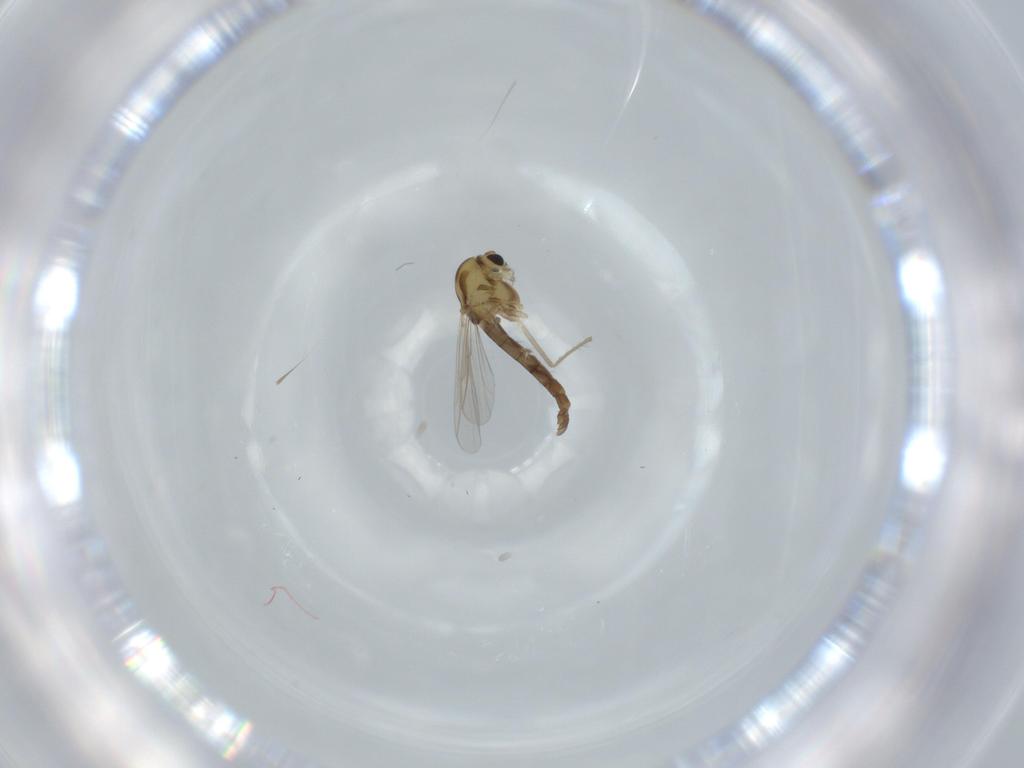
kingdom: Animalia
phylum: Arthropoda
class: Insecta
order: Diptera
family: Chironomidae
